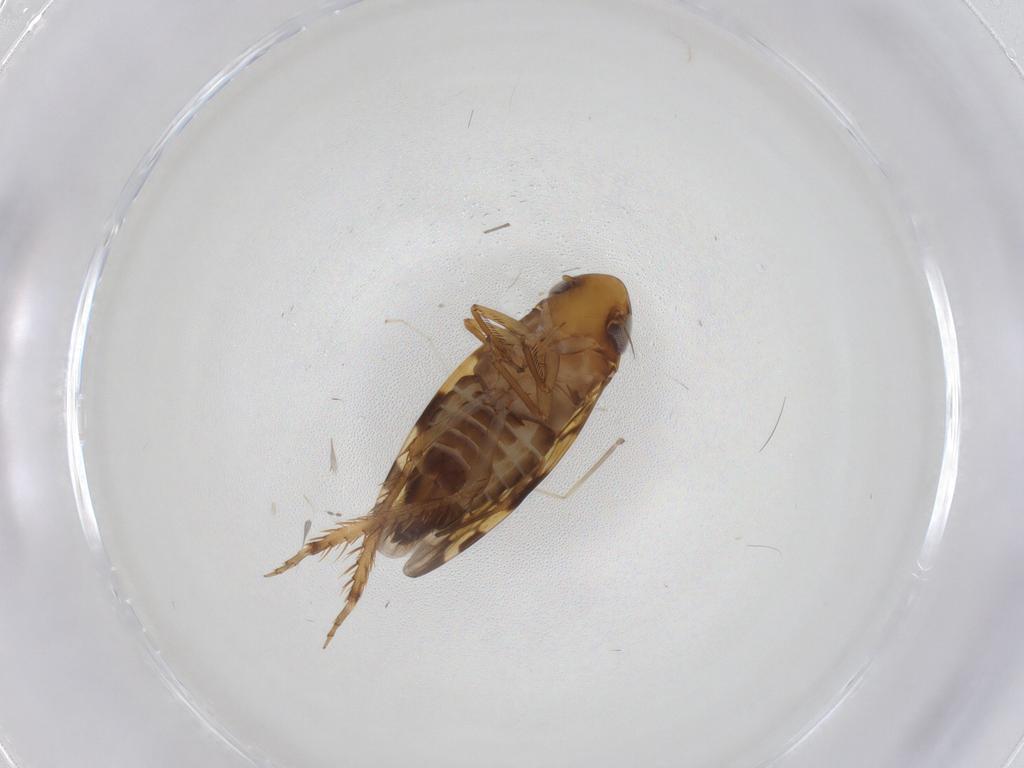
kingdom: Animalia
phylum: Arthropoda
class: Insecta
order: Hemiptera
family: Cicadellidae
